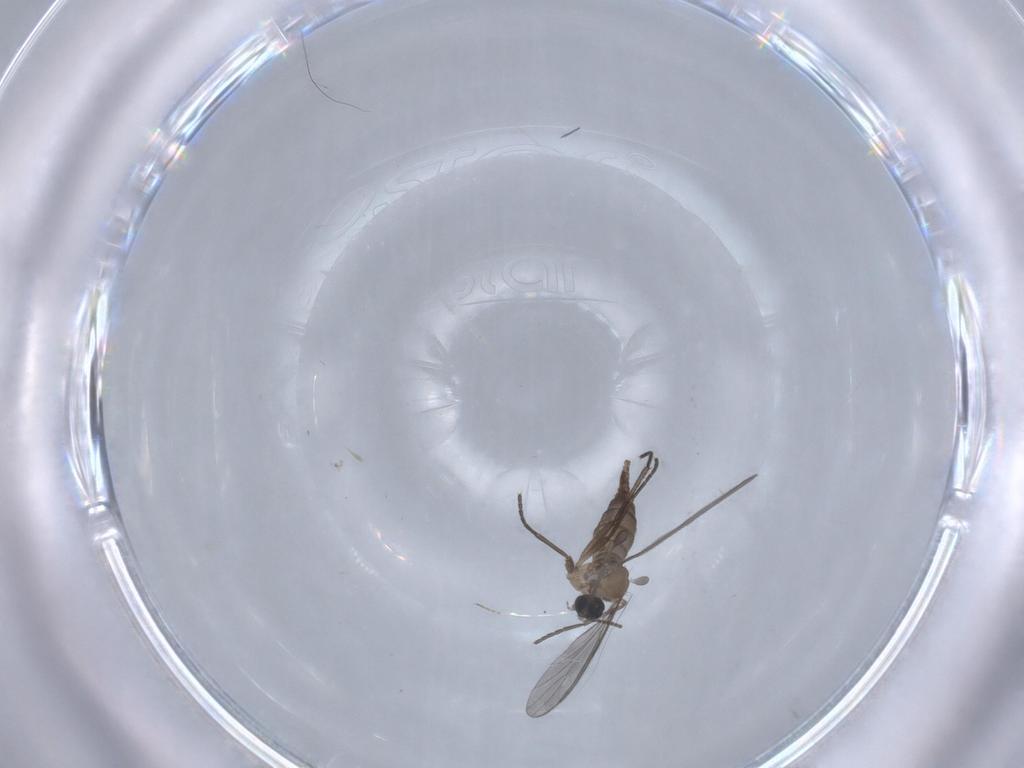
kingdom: Animalia
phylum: Arthropoda
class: Insecta
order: Diptera
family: Sciaridae
